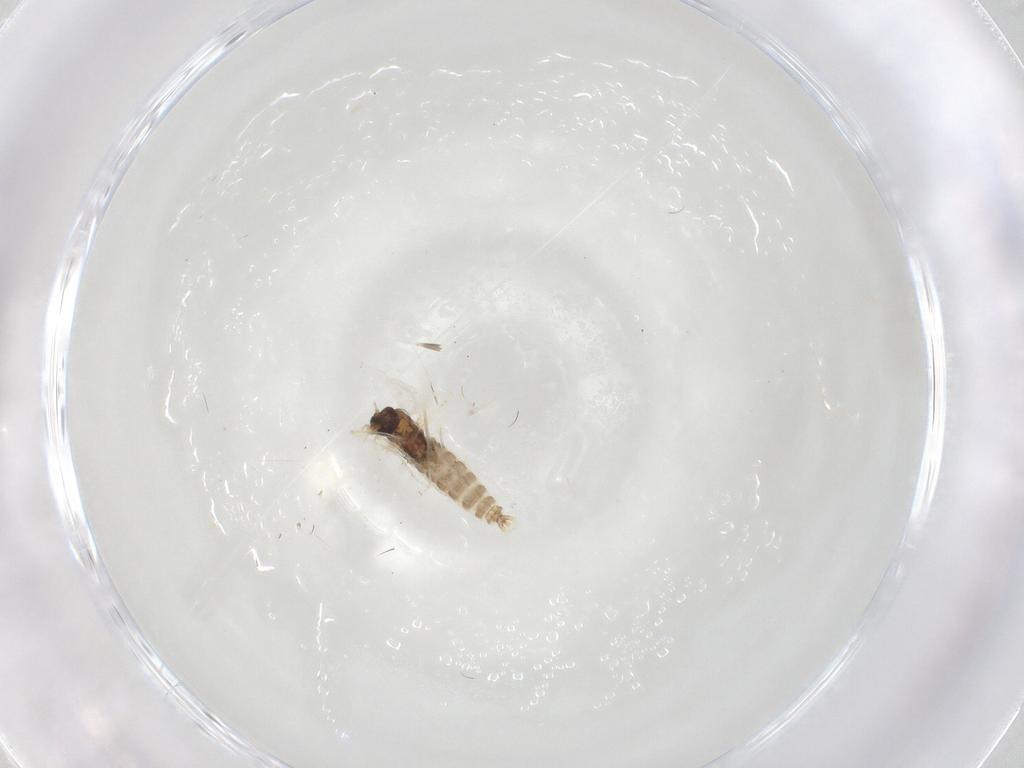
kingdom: Animalia
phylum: Arthropoda
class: Insecta
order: Diptera
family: Cecidomyiidae
